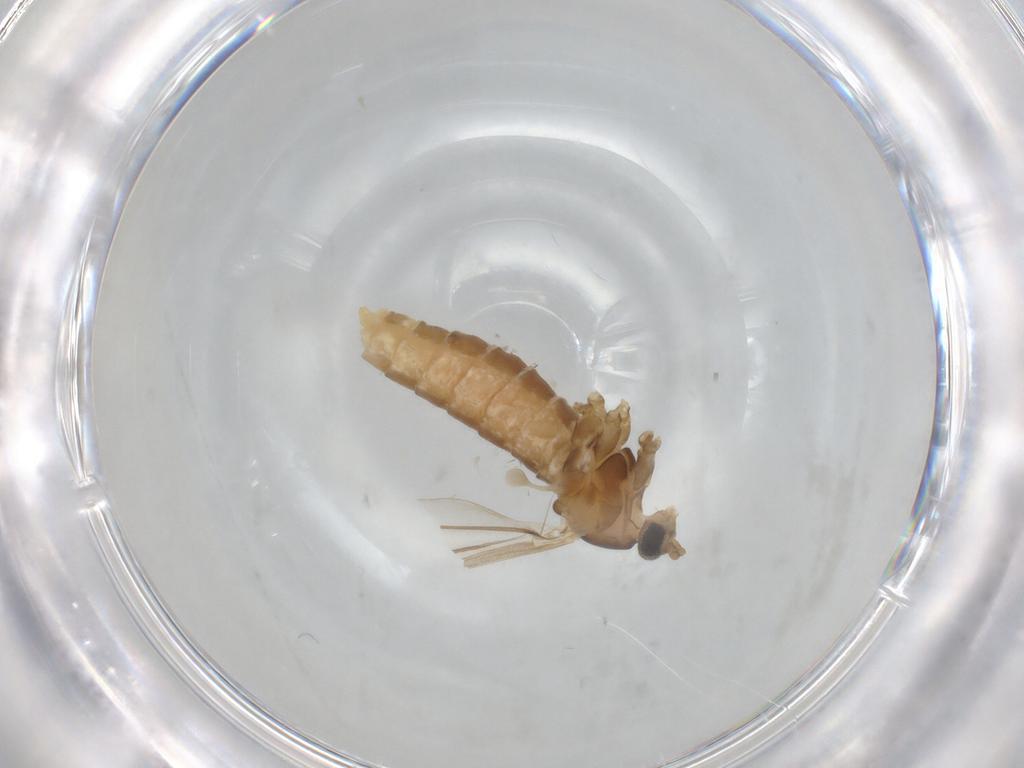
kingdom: Animalia
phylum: Arthropoda
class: Insecta
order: Diptera
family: Cecidomyiidae
